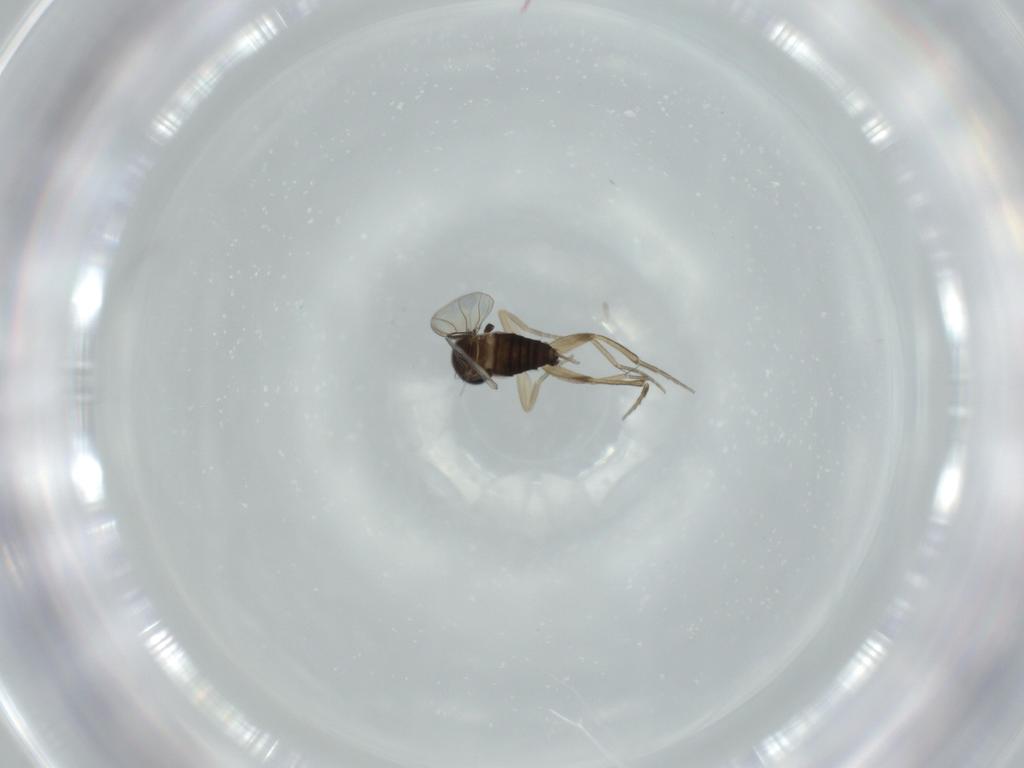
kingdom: Animalia
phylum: Arthropoda
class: Insecta
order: Diptera
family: Phoridae
